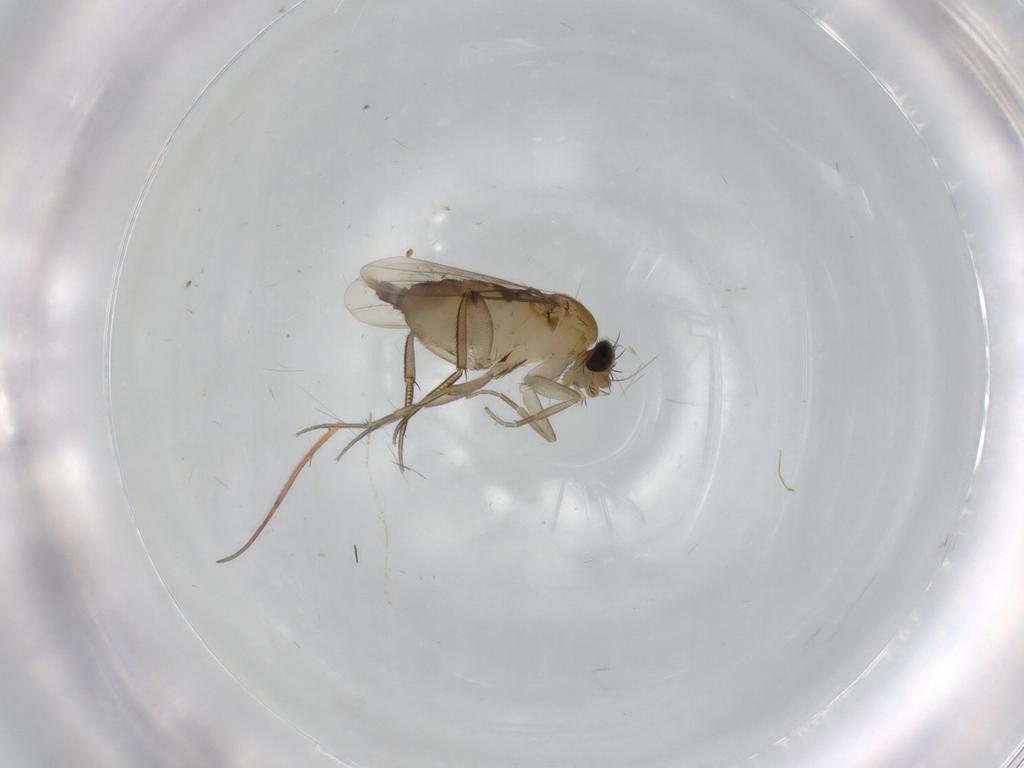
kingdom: Animalia
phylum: Arthropoda
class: Insecta
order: Diptera
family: Phoridae
